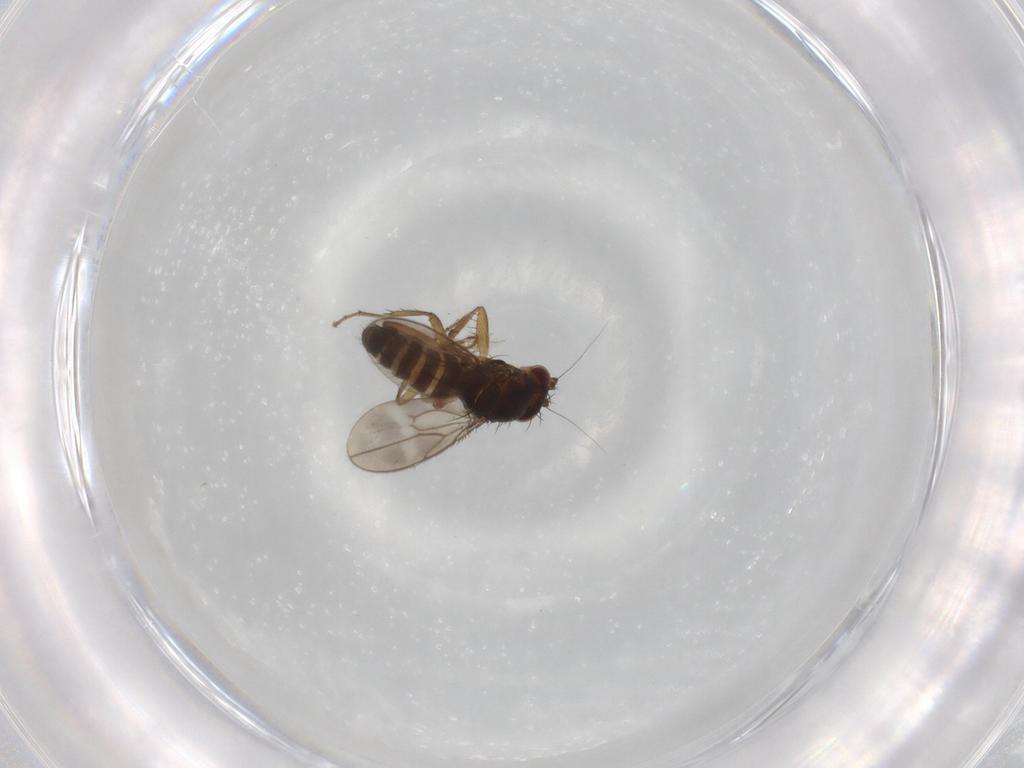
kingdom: Animalia
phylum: Arthropoda
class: Insecta
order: Diptera
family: Sphaeroceridae
